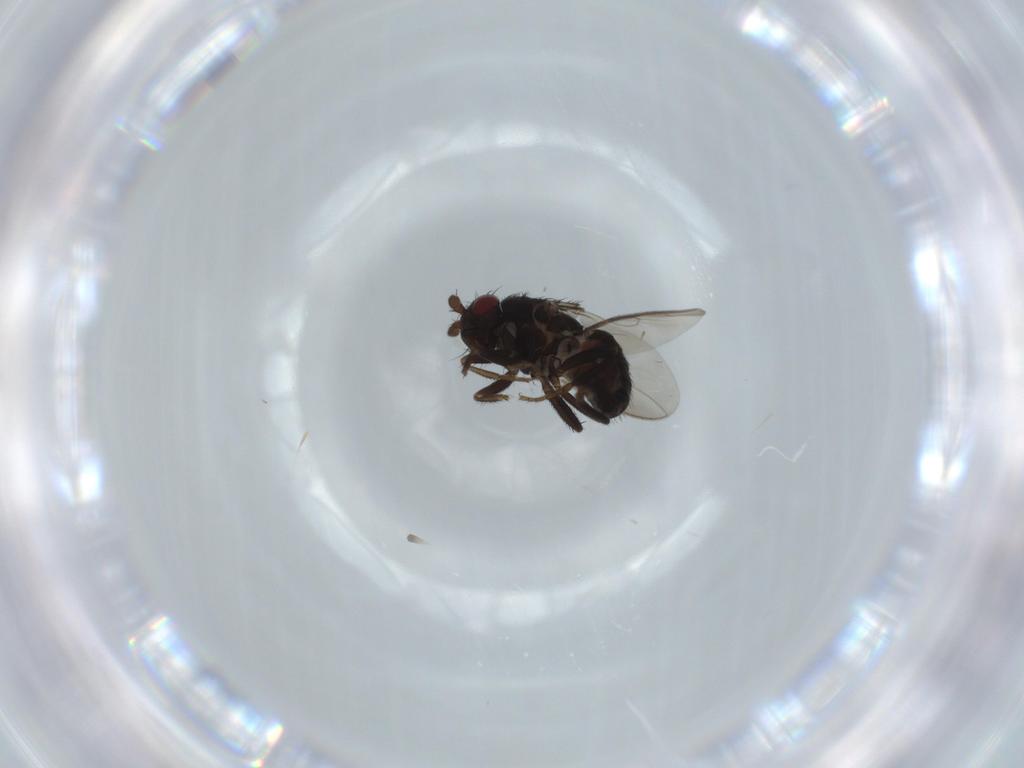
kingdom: Animalia
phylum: Arthropoda
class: Insecta
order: Diptera
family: Sphaeroceridae
